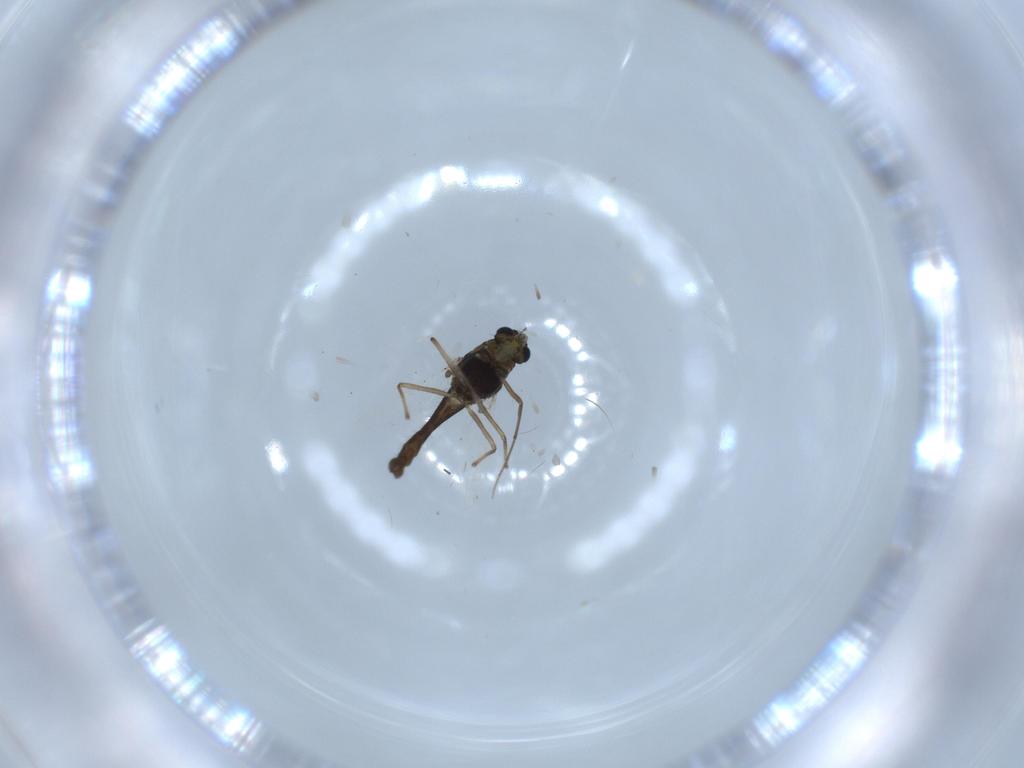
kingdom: Animalia
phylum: Arthropoda
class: Insecta
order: Diptera
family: Chironomidae
